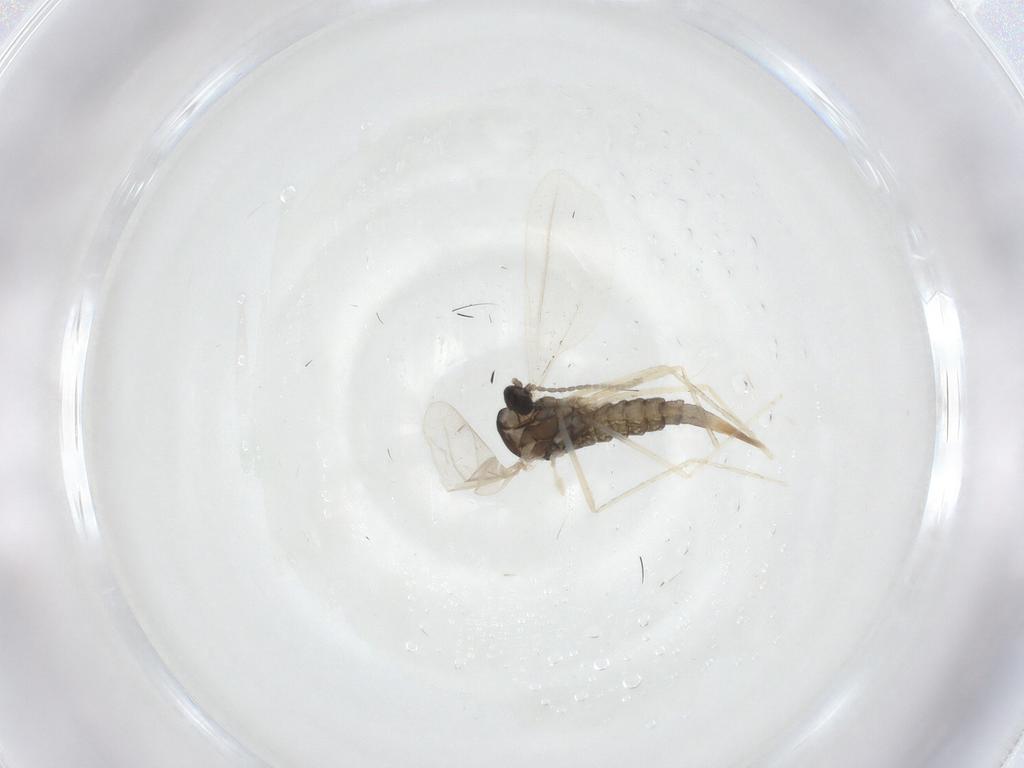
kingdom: Animalia
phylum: Arthropoda
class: Insecta
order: Diptera
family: Cecidomyiidae
